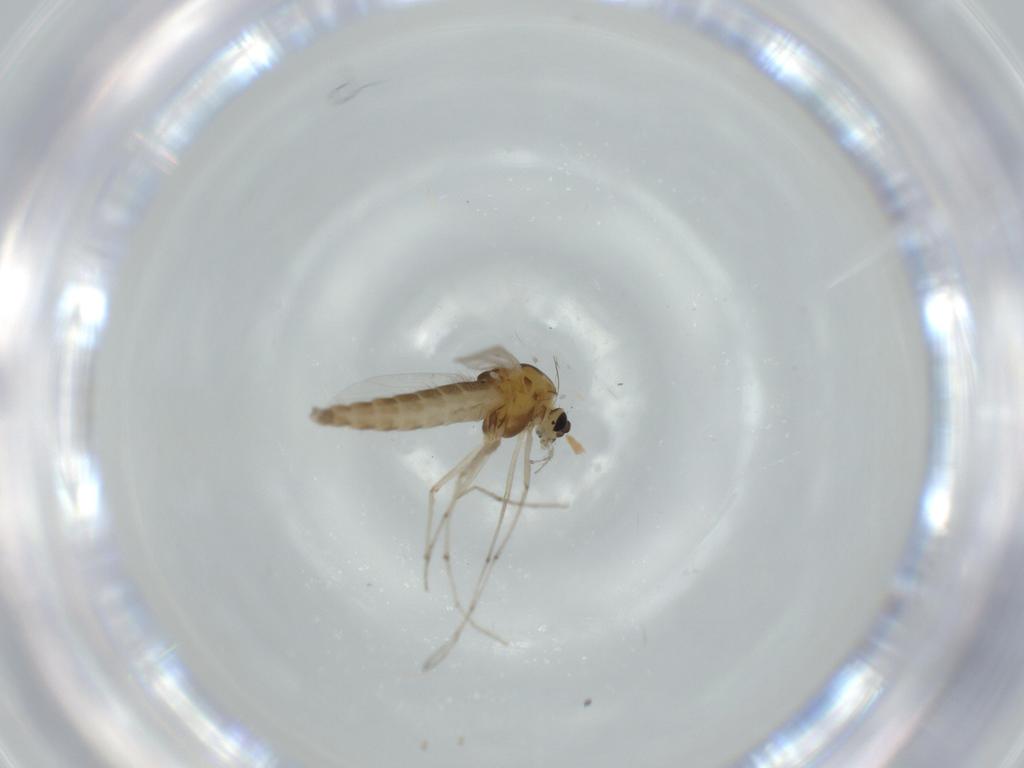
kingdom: Animalia
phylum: Arthropoda
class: Insecta
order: Diptera
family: Chironomidae
